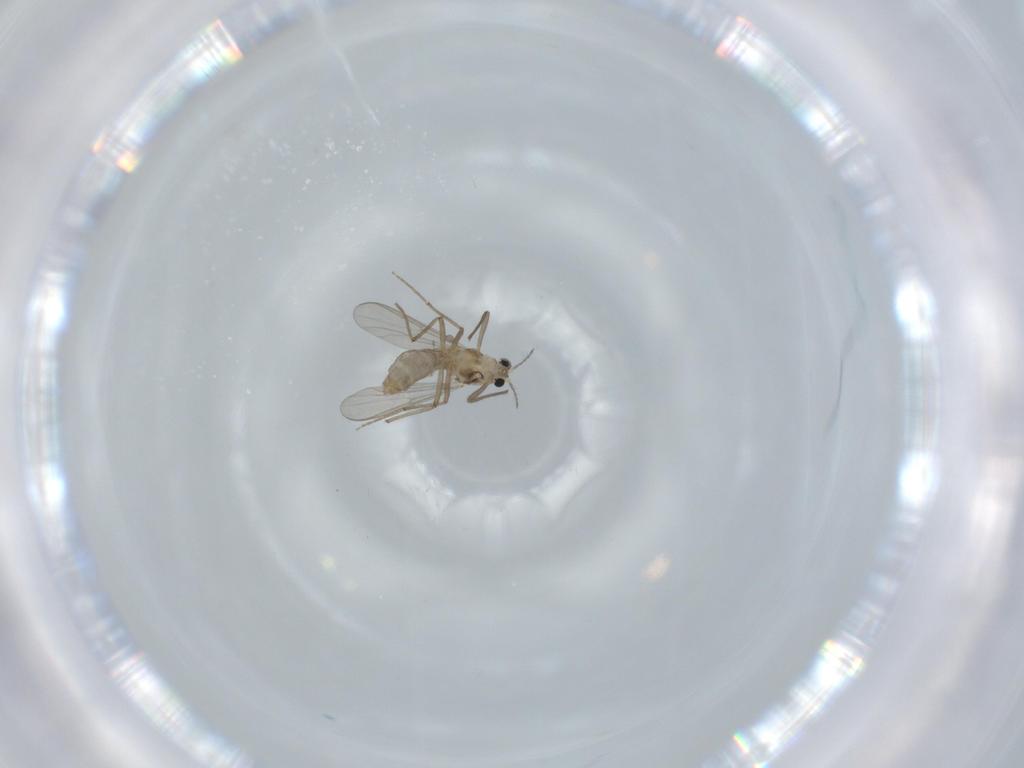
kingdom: Animalia
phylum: Arthropoda
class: Insecta
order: Diptera
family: Chironomidae
